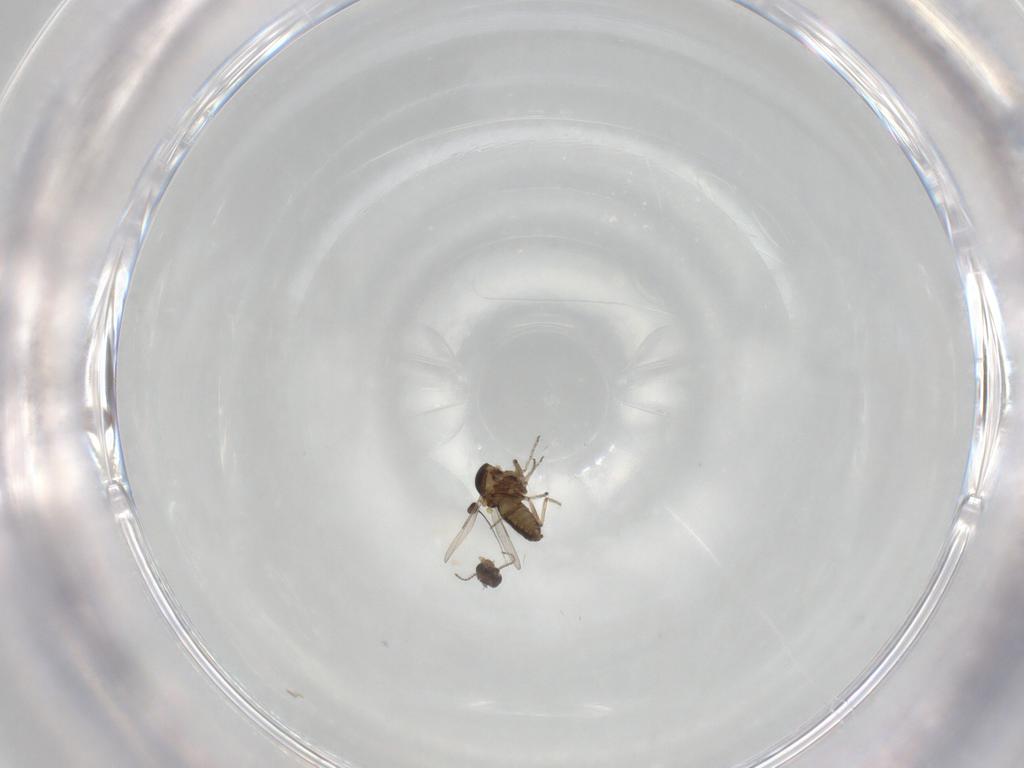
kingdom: Animalia
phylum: Arthropoda
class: Insecta
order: Diptera
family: Ceratopogonidae
